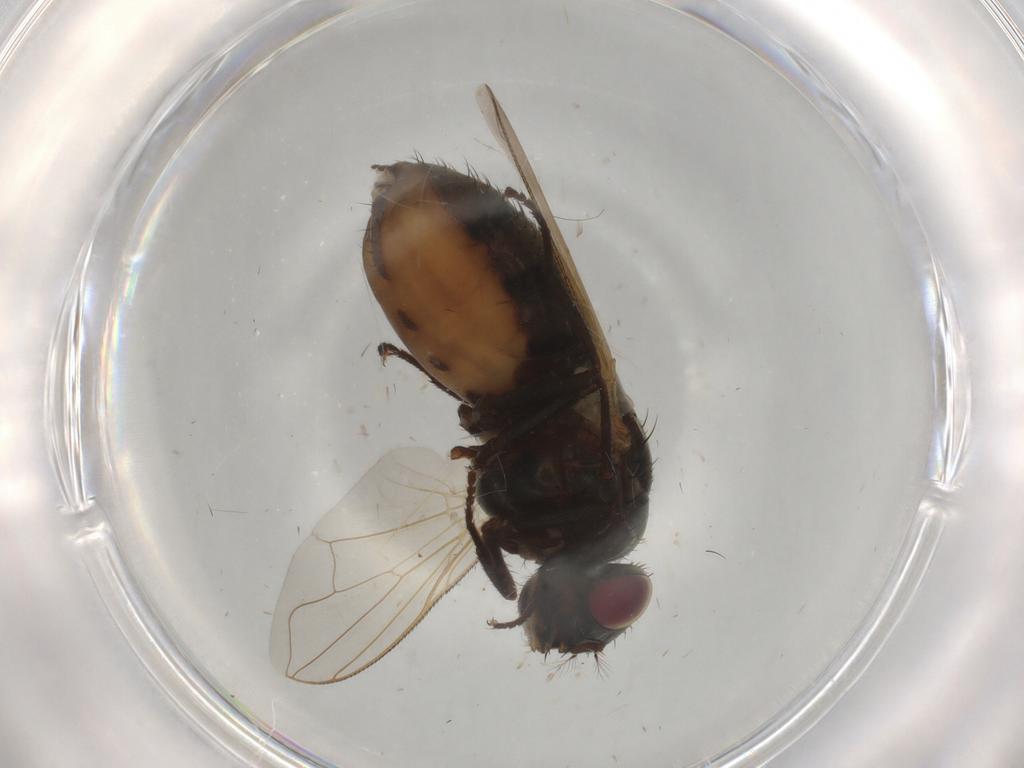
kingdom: Animalia
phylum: Arthropoda
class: Insecta
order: Diptera
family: Muscidae
